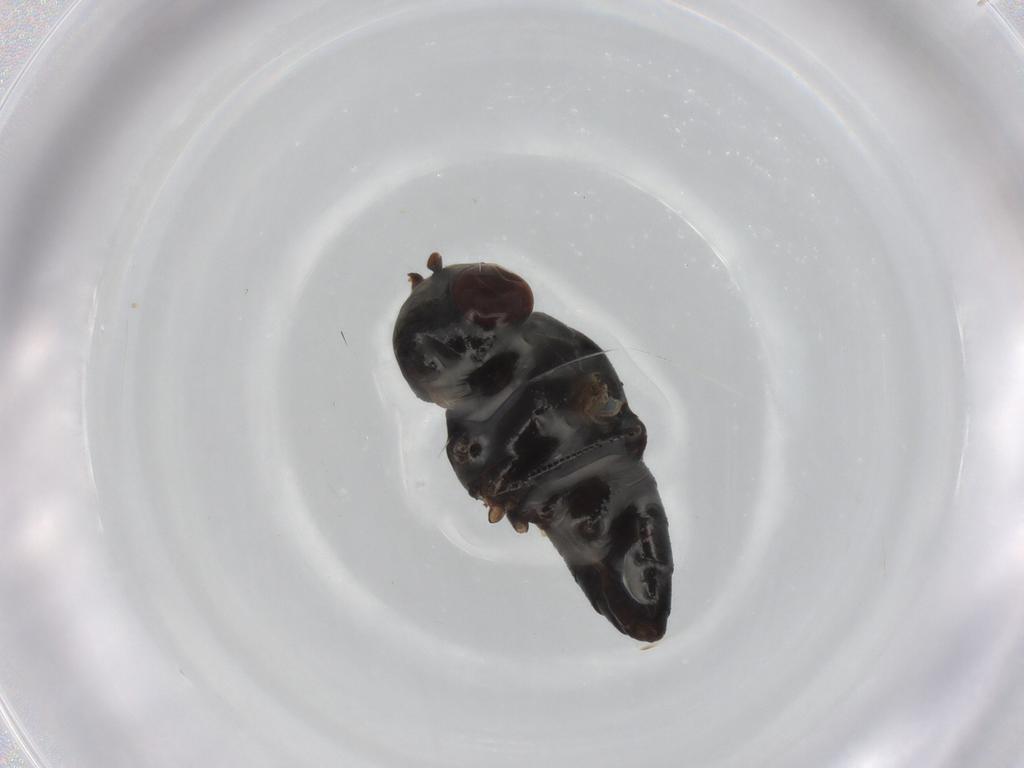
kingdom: Animalia
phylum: Arthropoda
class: Insecta
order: Diptera
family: Ephydridae
